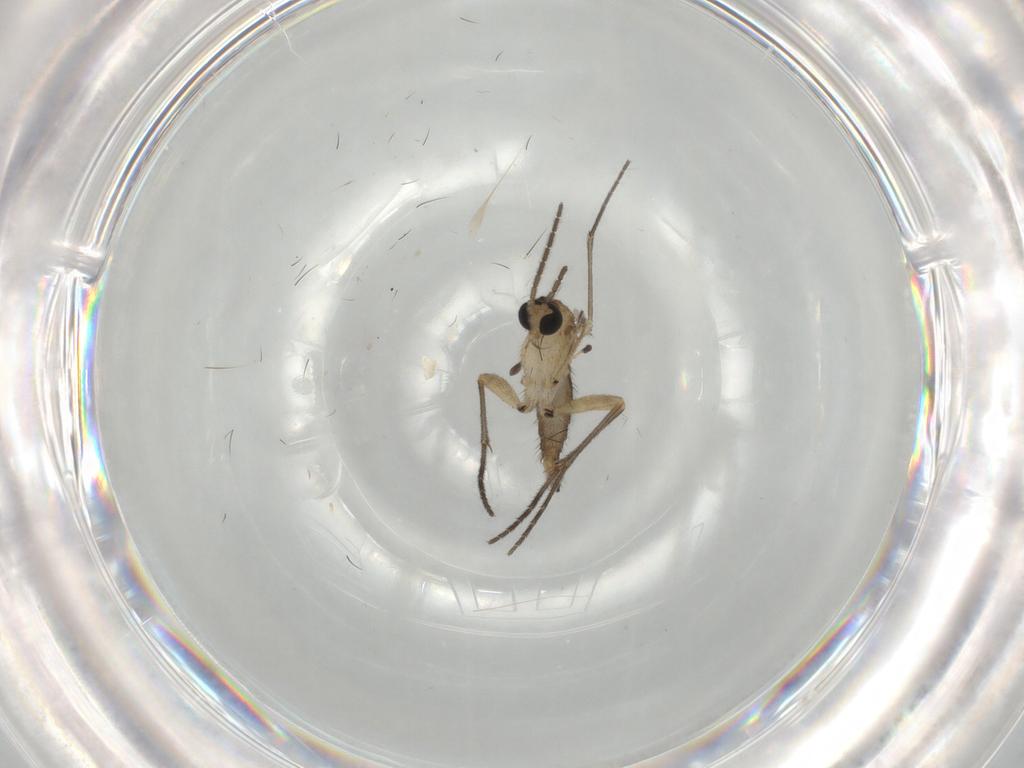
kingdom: Animalia
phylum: Arthropoda
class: Insecta
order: Diptera
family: Sciaridae
